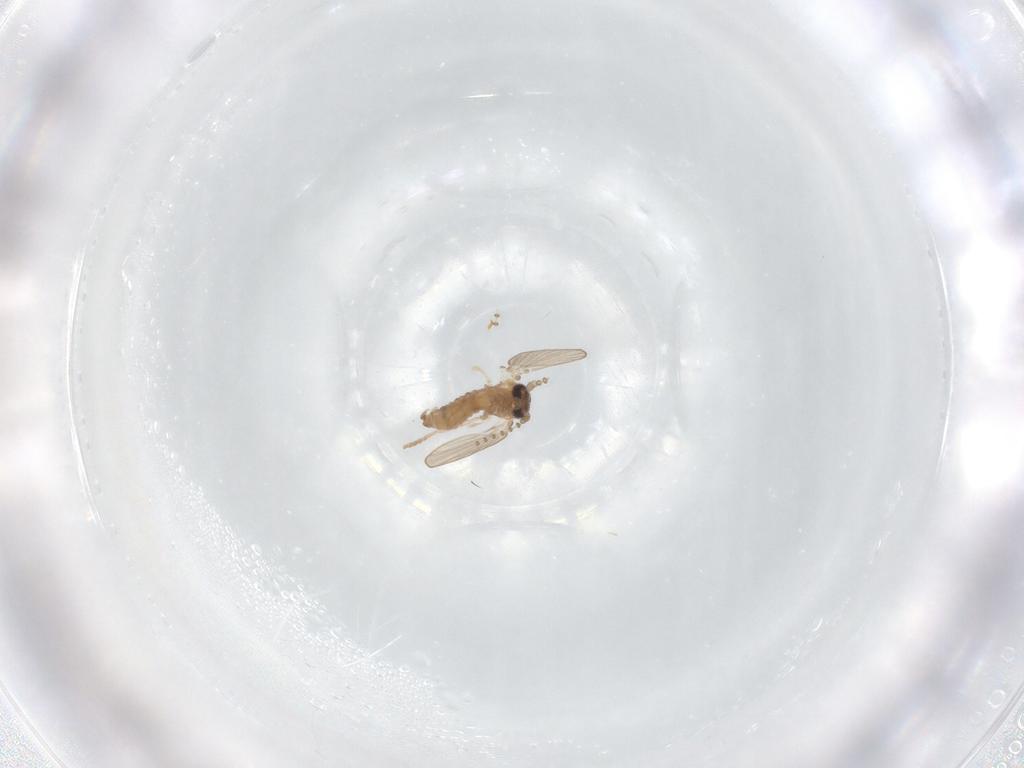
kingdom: Animalia
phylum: Arthropoda
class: Insecta
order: Diptera
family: Psychodidae
